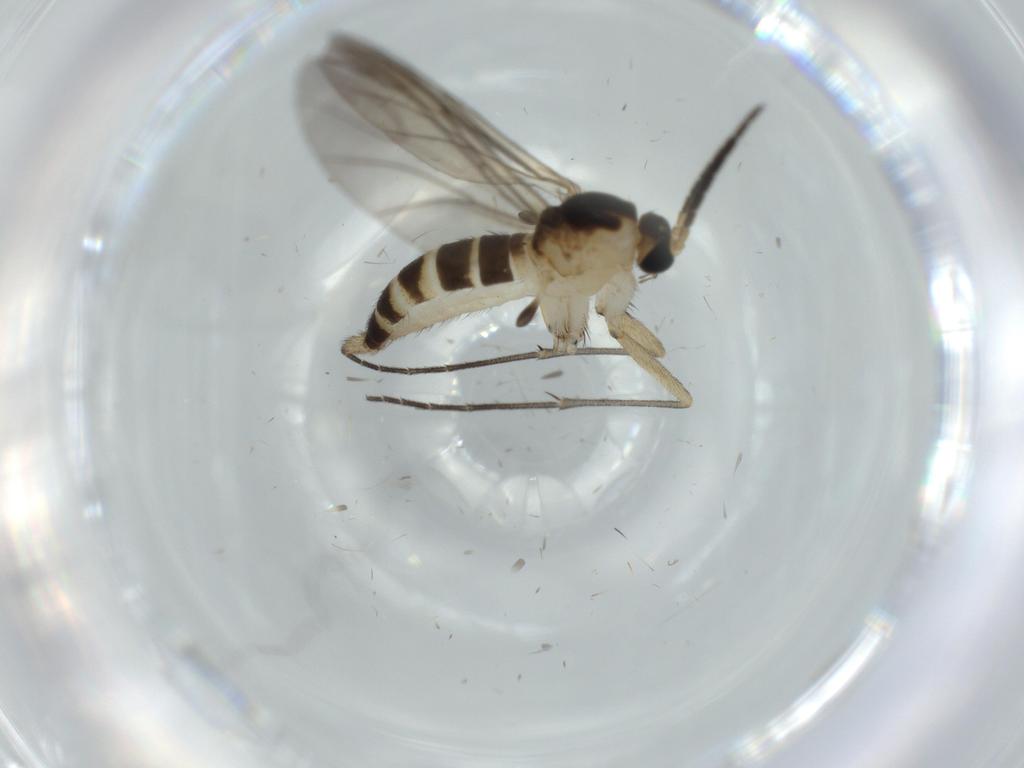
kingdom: Animalia
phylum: Arthropoda
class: Insecta
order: Diptera
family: Sciaridae
